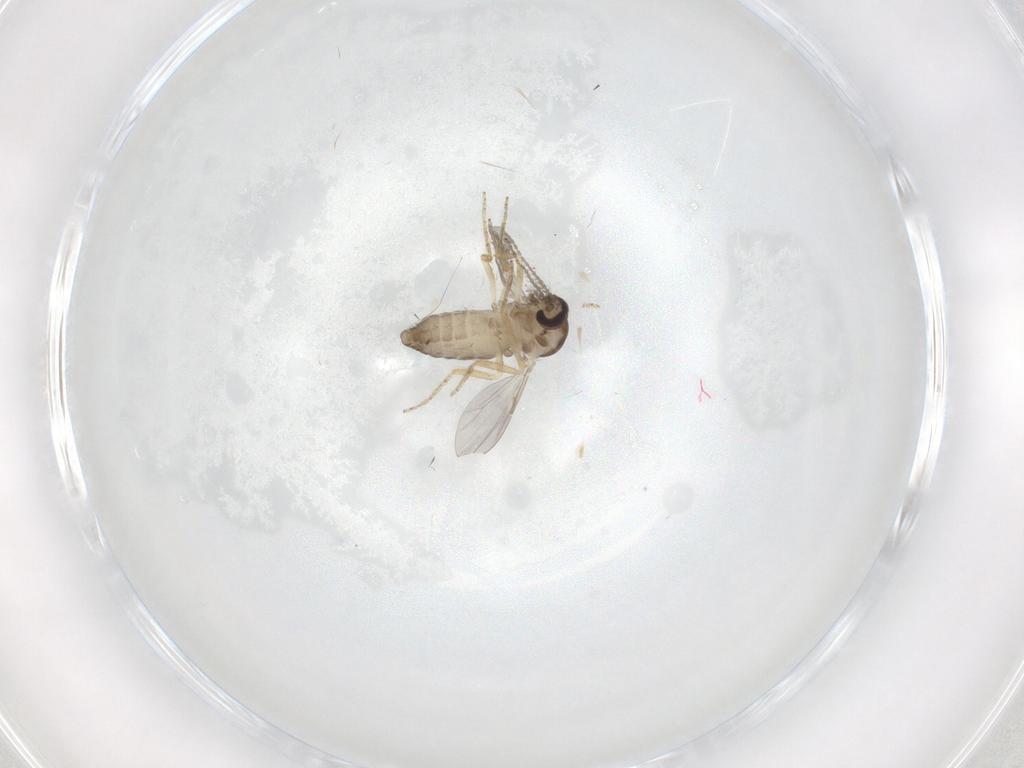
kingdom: Animalia
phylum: Arthropoda
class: Insecta
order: Diptera
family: Ceratopogonidae
